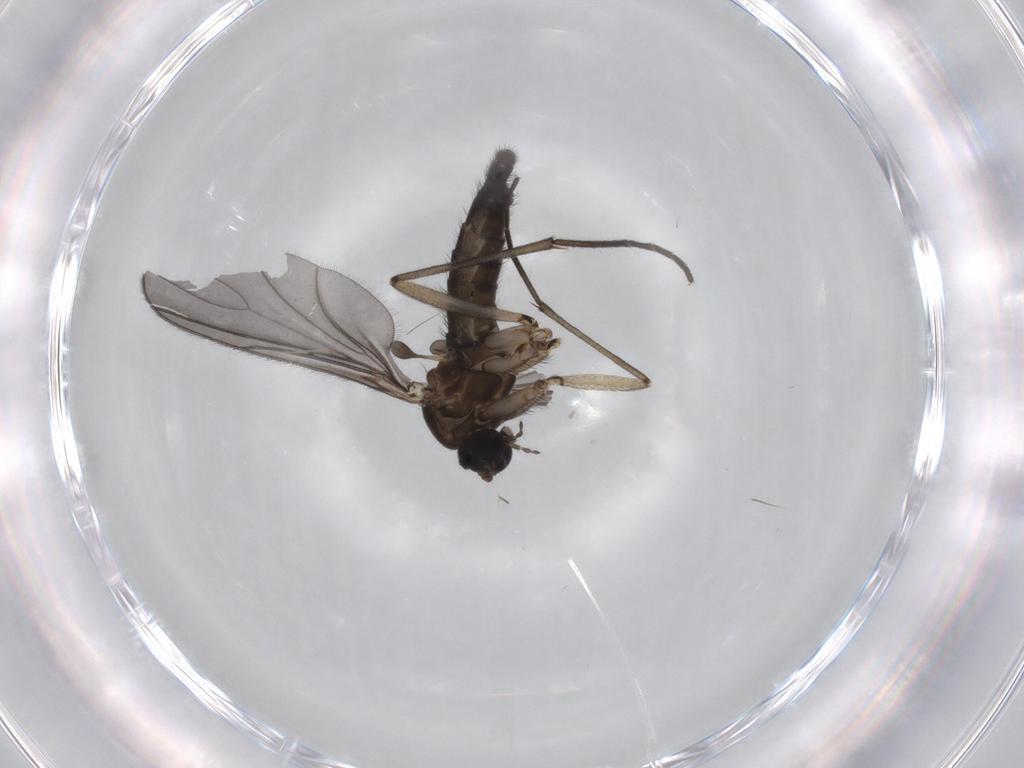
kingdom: Animalia
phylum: Arthropoda
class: Insecta
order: Diptera
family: Sciaridae
